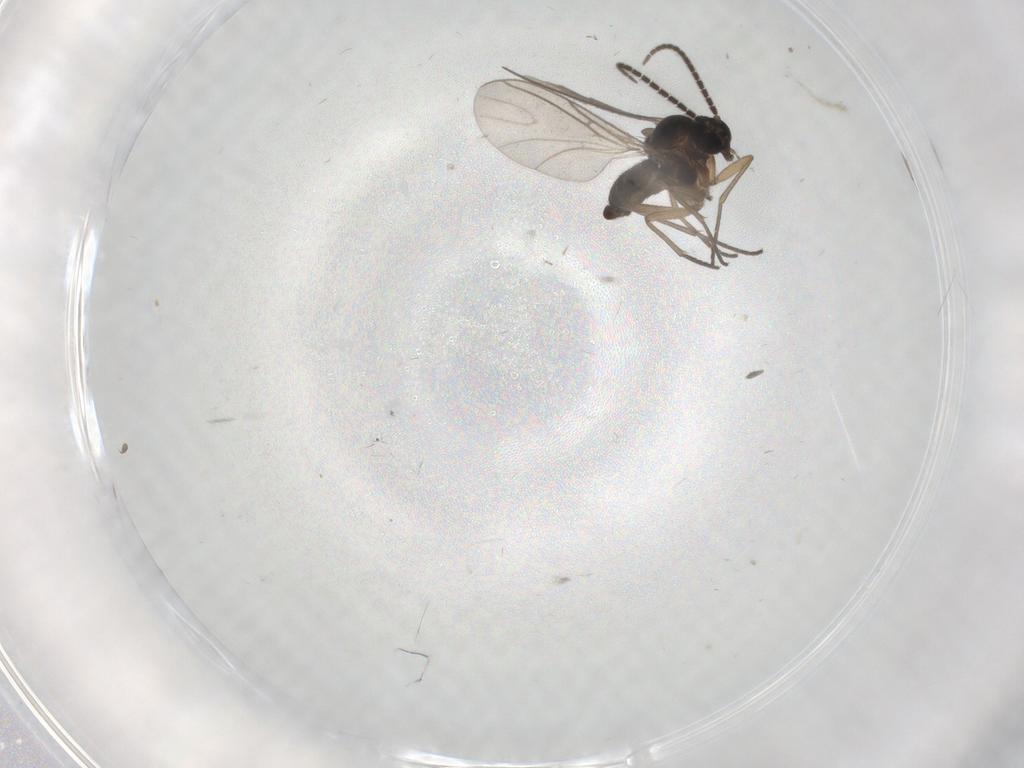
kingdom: Animalia
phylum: Arthropoda
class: Insecta
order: Diptera
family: Sciaridae
